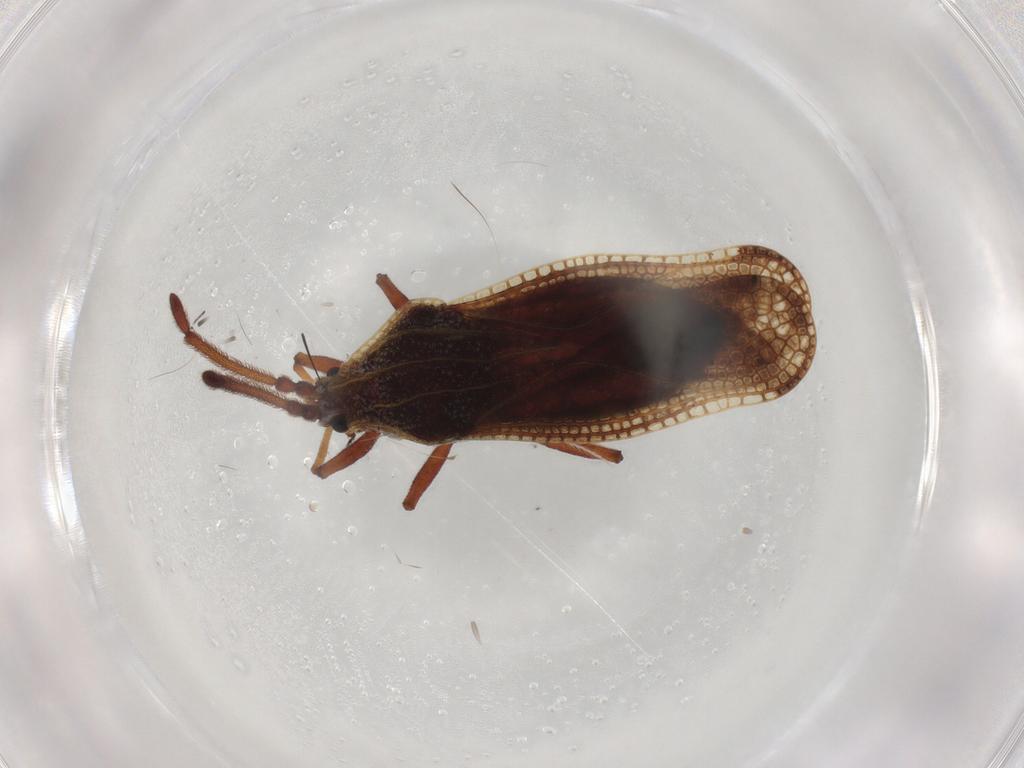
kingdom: Animalia
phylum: Arthropoda
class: Insecta
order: Hemiptera
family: Tingidae
